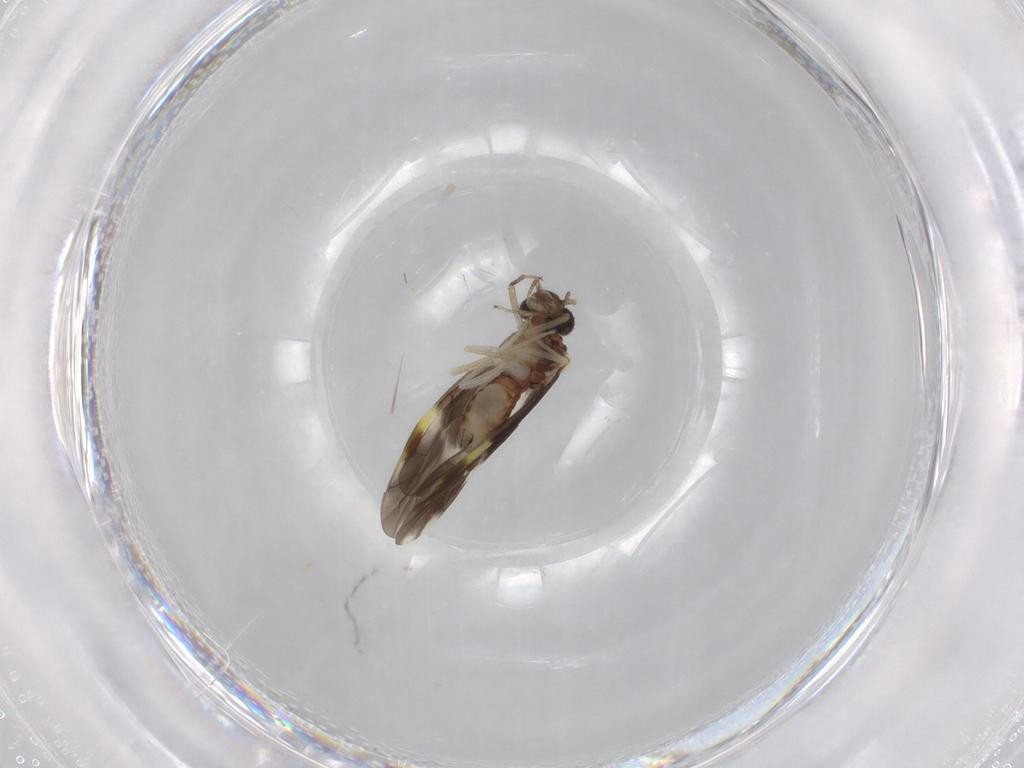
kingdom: Animalia
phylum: Arthropoda
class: Insecta
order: Psocodea
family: Peripsocidae
